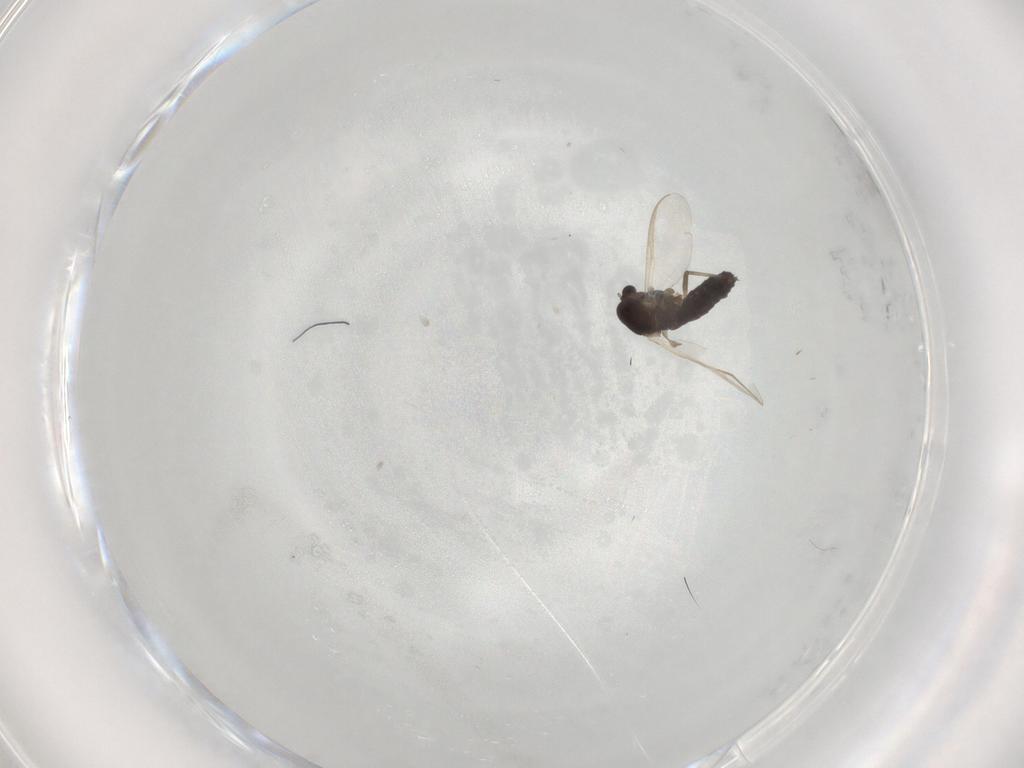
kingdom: Animalia
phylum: Arthropoda
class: Insecta
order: Diptera
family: Chironomidae
